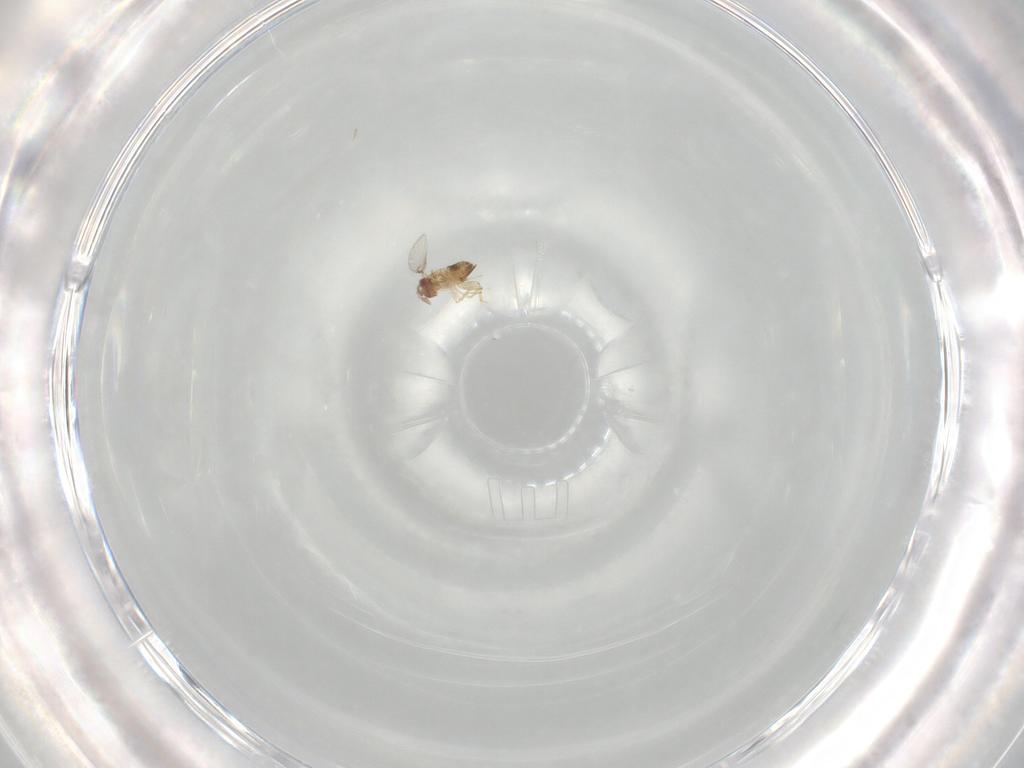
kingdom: Animalia
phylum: Arthropoda
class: Insecta
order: Hymenoptera
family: Trichogrammatidae
